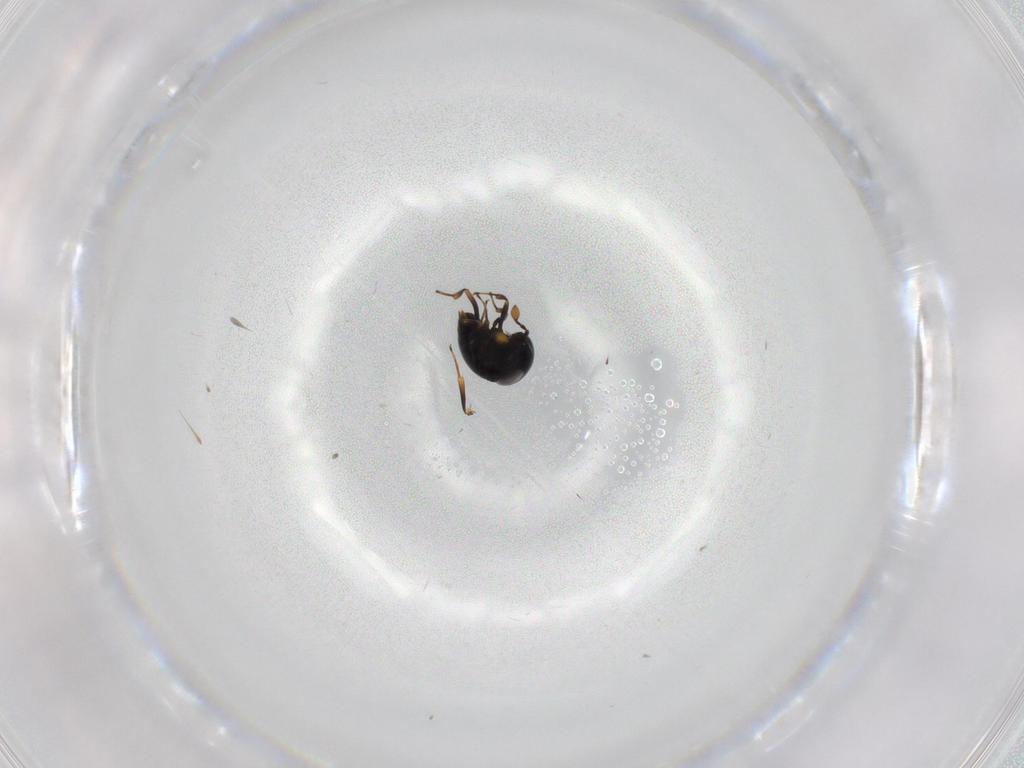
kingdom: Animalia
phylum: Arthropoda
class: Insecta
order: Hymenoptera
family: Scelionidae
